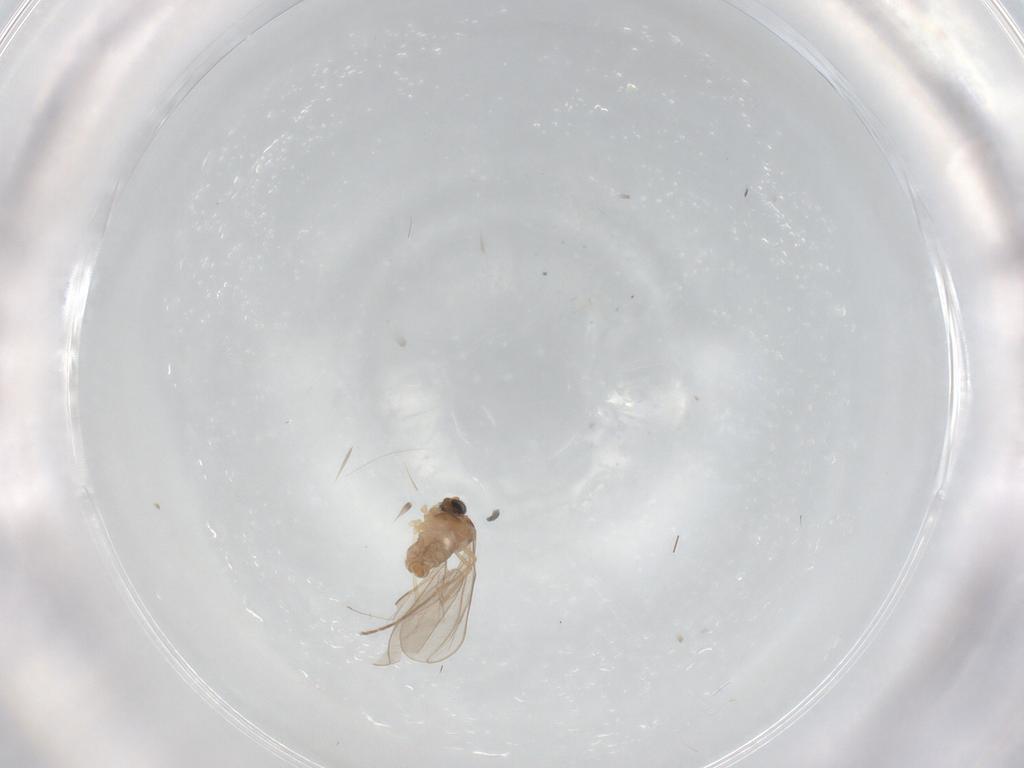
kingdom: Animalia
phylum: Arthropoda
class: Insecta
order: Diptera
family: Cecidomyiidae
